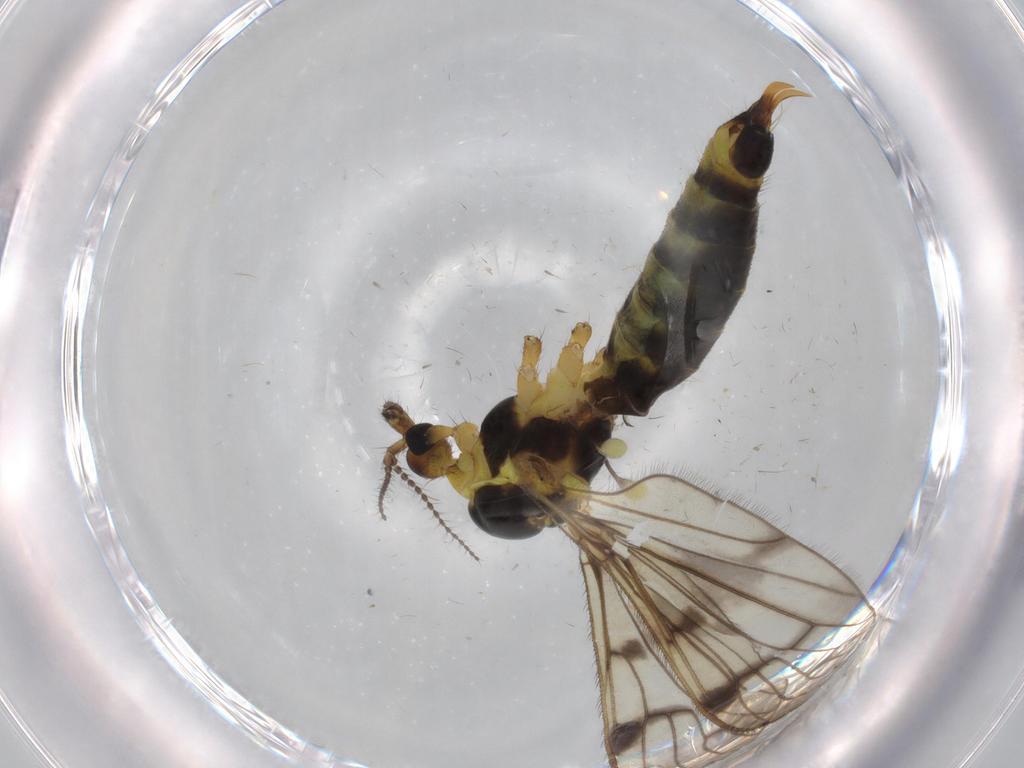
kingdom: Animalia
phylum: Arthropoda
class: Insecta
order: Diptera
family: Limoniidae
